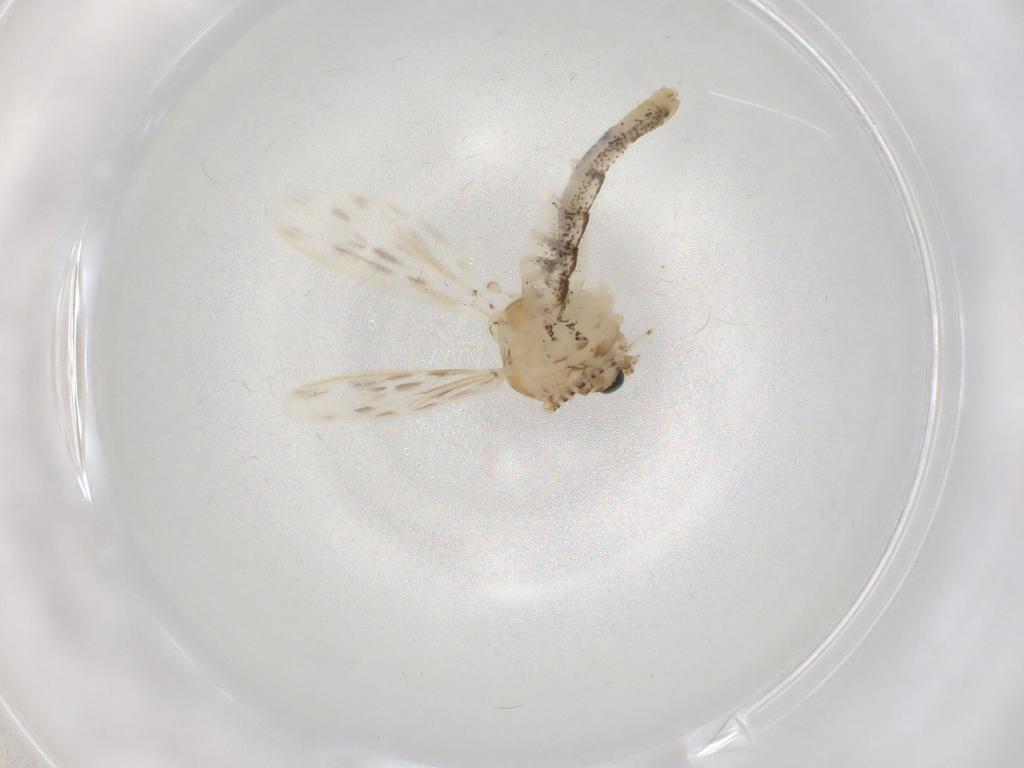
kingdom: Animalia
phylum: Arthropoda
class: Insecta
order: Diptera
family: Chaoboridae
